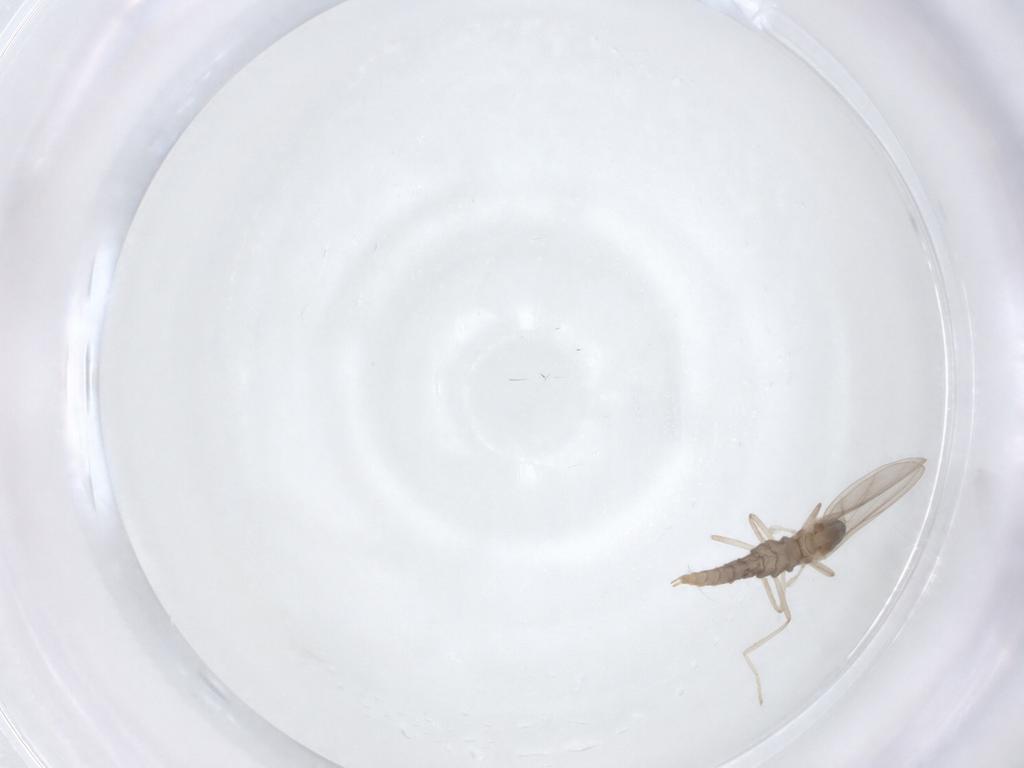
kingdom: Animalia
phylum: Arthropoda
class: Insecta
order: Diptera
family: Cecidomyiidae
